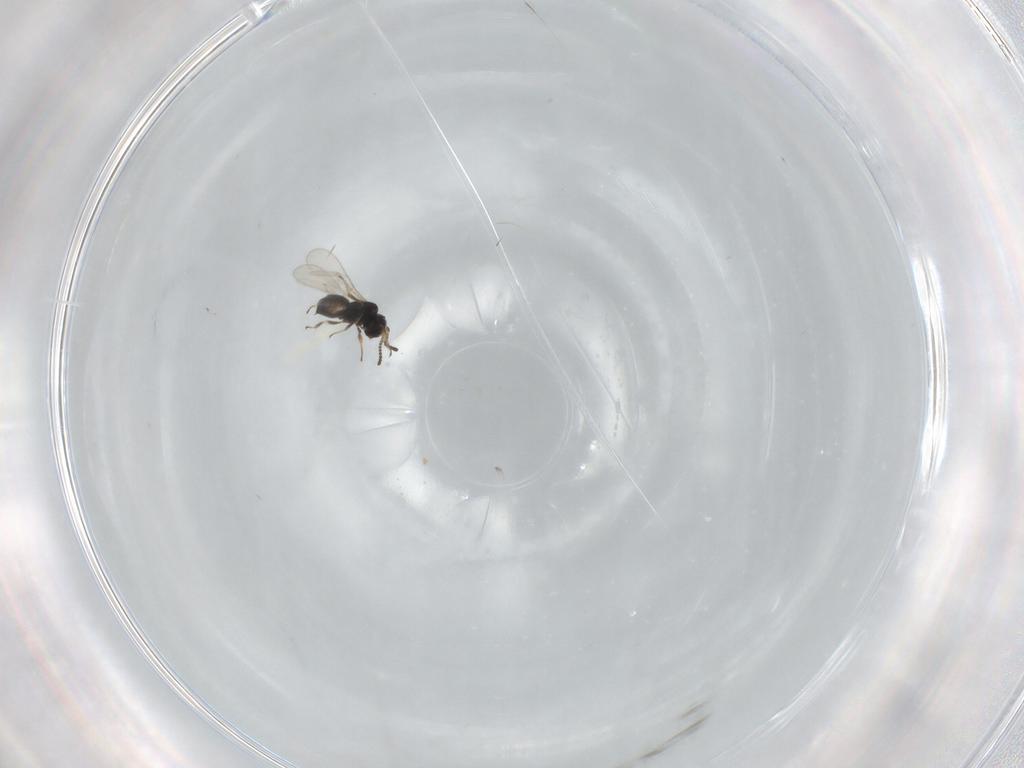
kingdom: Animalia
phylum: Arthropoda
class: Insecta
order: Hymenoptera
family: Scelionidae
